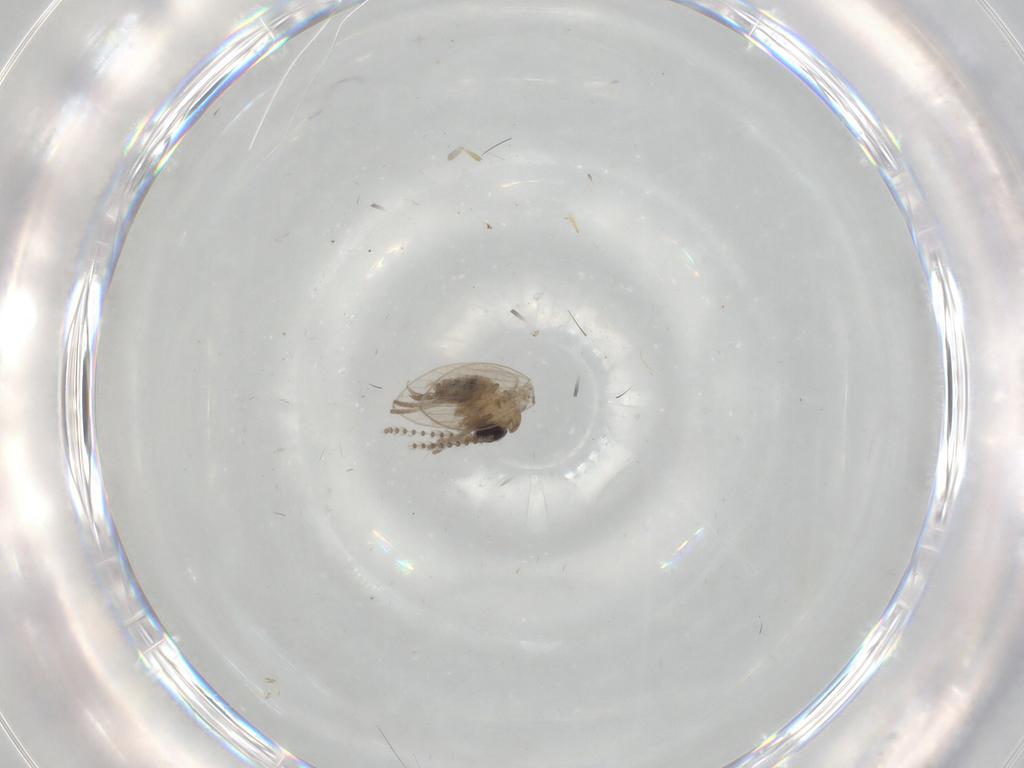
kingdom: Animalia
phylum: Arthropoda
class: Insecta
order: Diptera
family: Psychodidae
